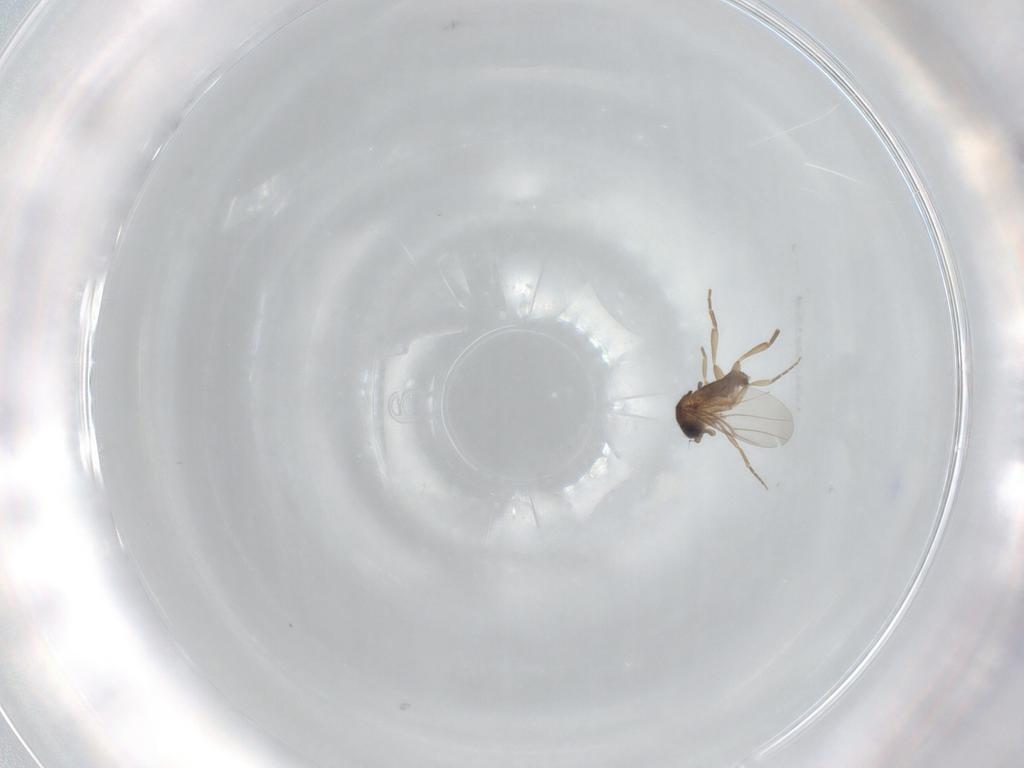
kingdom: Animalia
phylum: Arthropoda
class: Insecta
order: Diptera
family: Phoridae
